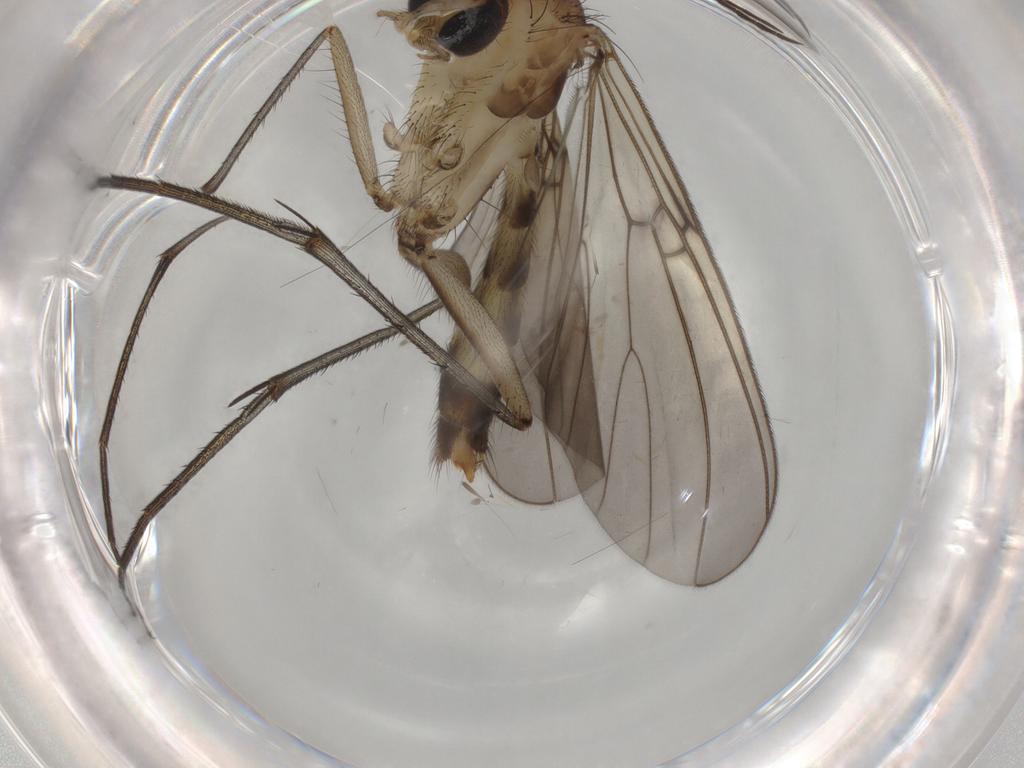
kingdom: Animalia
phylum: Arthropoda
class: Insecta
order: Diptera
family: Mycetophilidae
